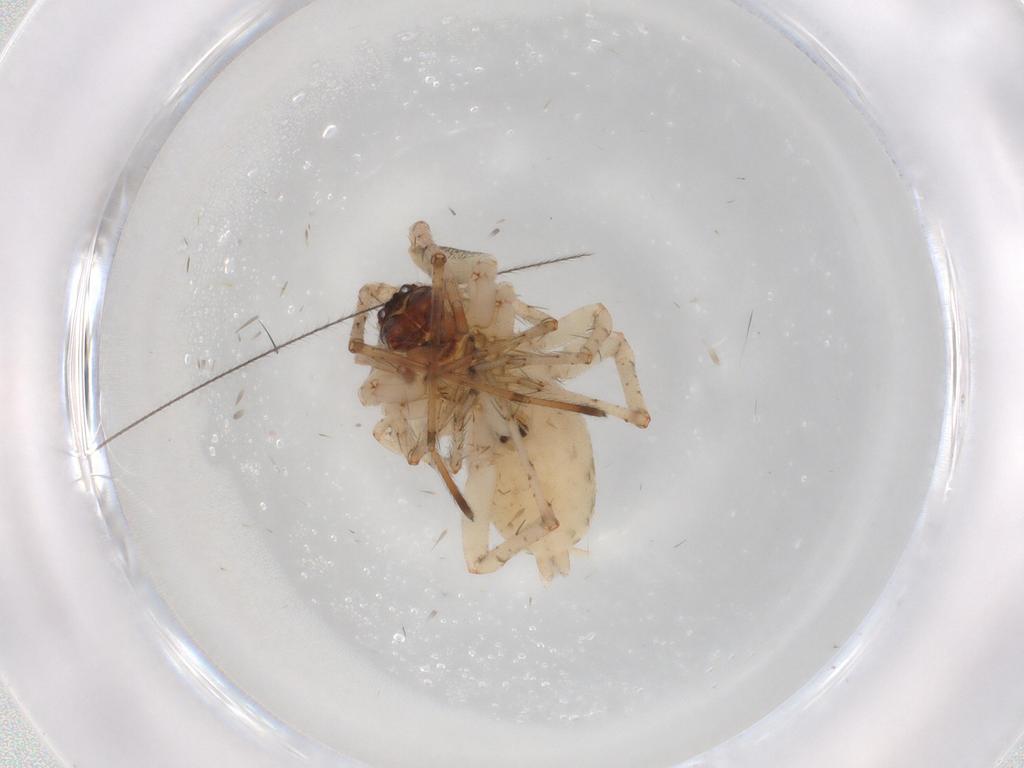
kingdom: Animalia
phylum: Arthropoda
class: Arachnida
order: Araneae
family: Anyphaenidae
